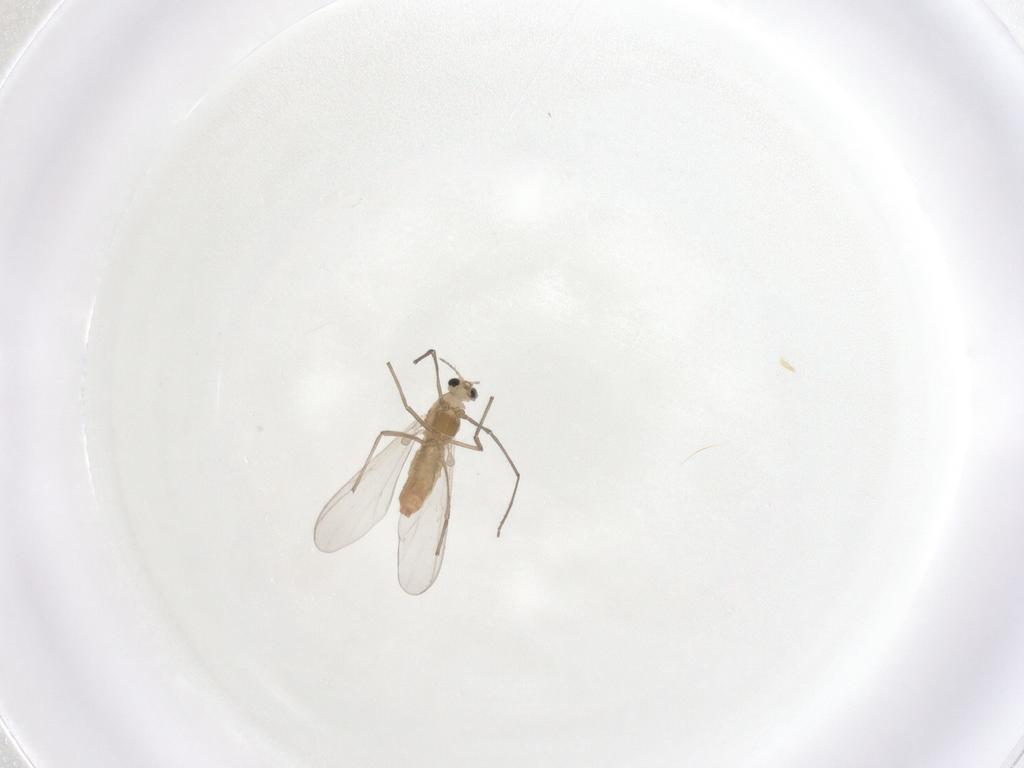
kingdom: Animalia
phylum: Arthropoda
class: Insecta
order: Diptera
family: Chironomidae
